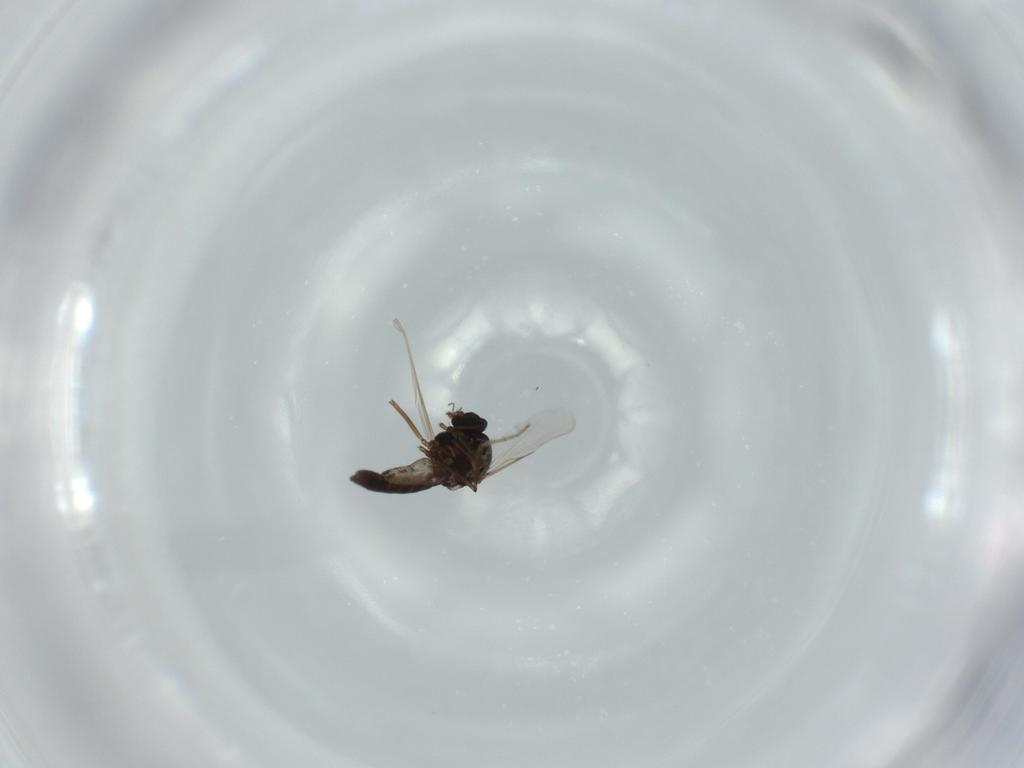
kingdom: Animalia
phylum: Arthropoda
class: Insecta
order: Diptera
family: Chironomidae
